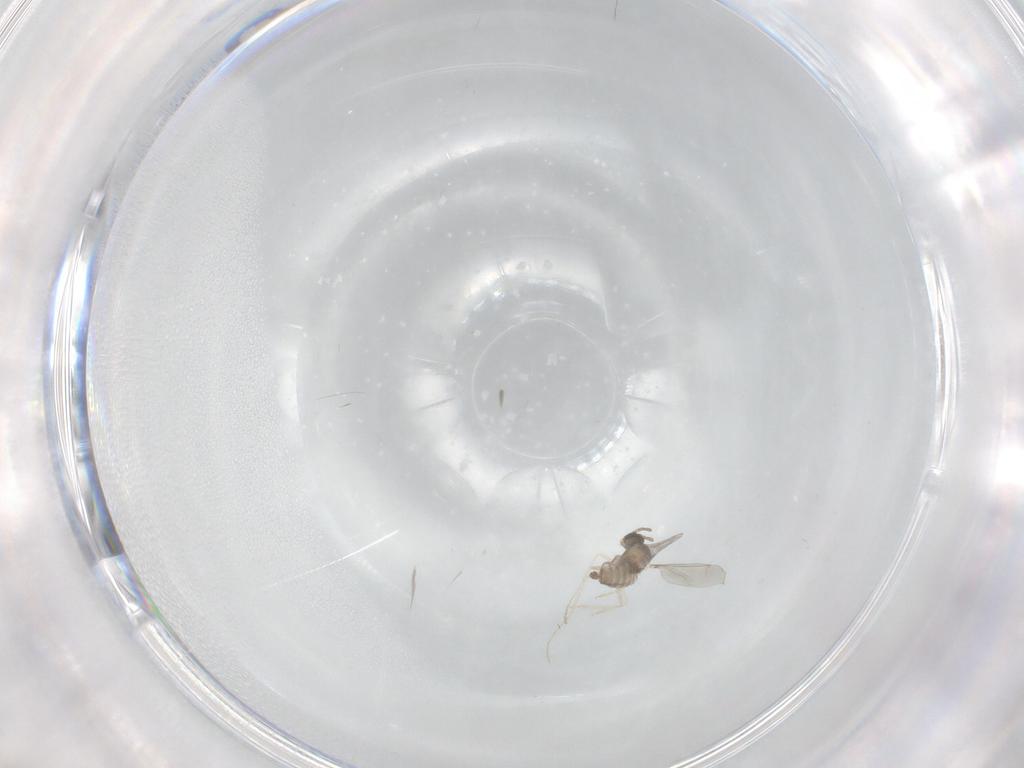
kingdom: Animalia
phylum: Arthropoda
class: Insecta
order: Diptera
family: Cecidomyiidae
